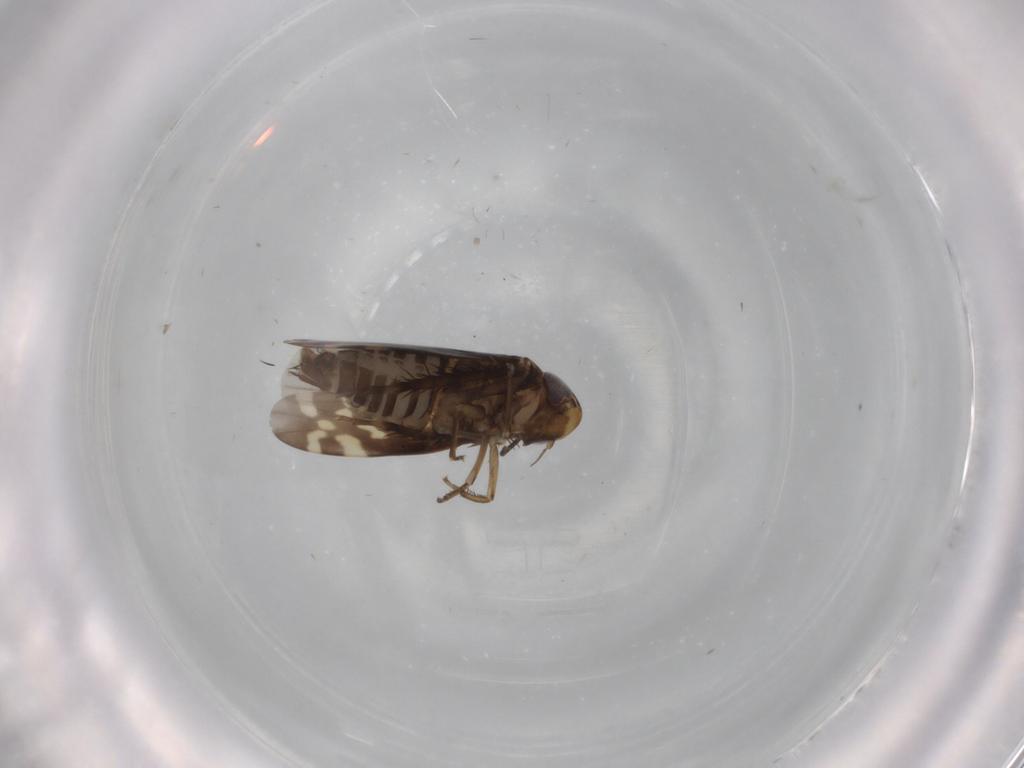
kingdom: Animalia
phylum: Arthropoda
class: Insecta
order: Hemiptera
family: Cicadellidae
